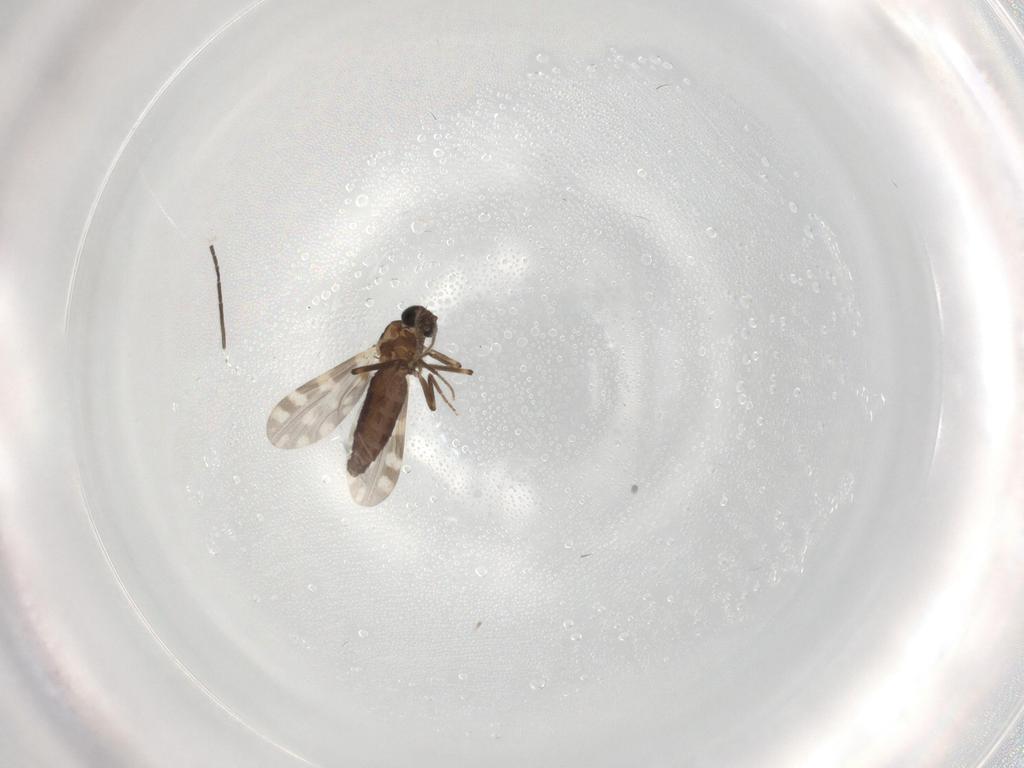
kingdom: Animalia
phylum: Arthropoda
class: Insecta
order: Diptera
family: Ceratopogonidae
